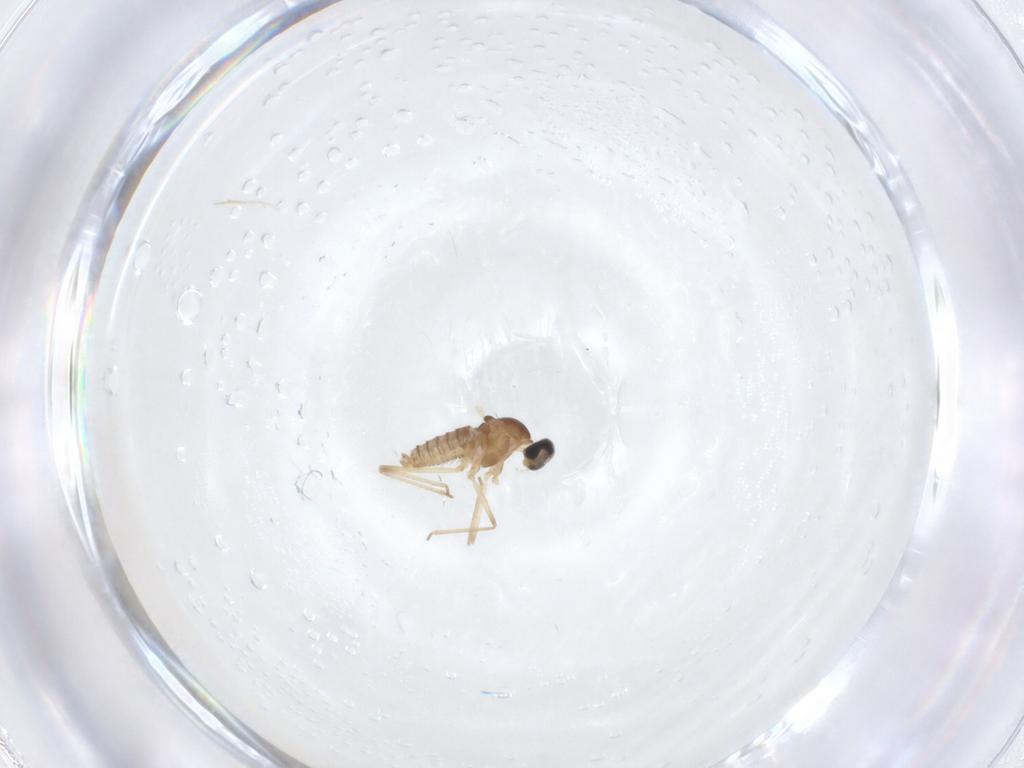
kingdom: Animalia
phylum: Arthropoda
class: Insecta
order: Diptera
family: Cecidomyiidae
